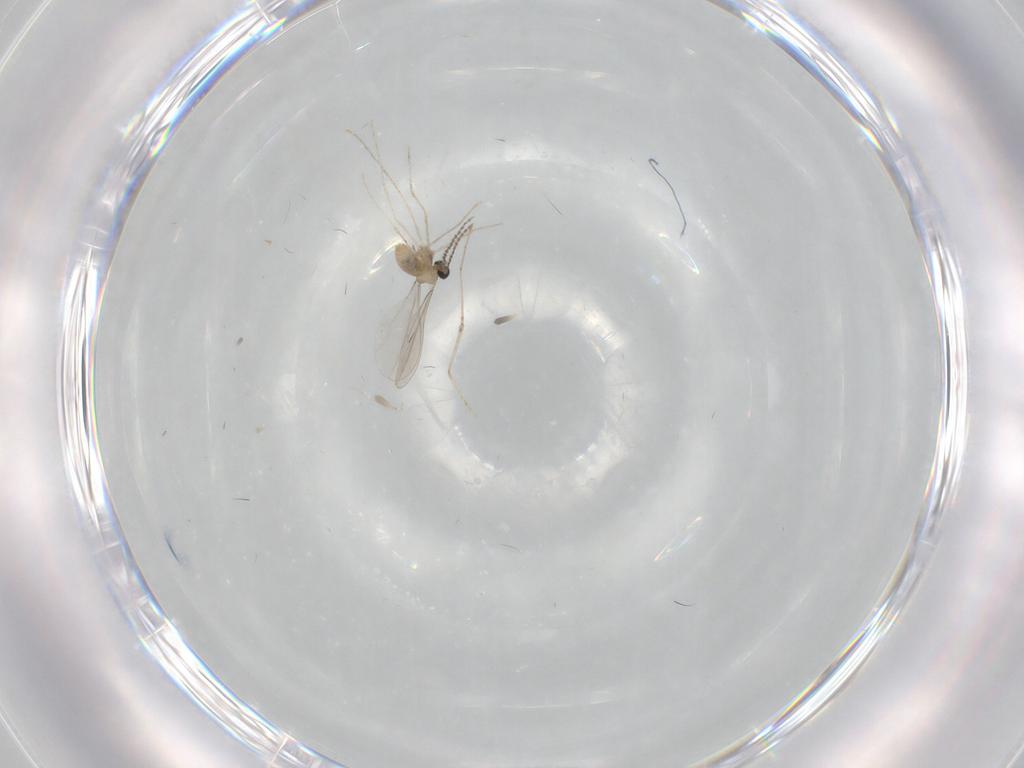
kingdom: Animalia
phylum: Arthropoda
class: Insecta
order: Diptera
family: Cecidomyiidae
